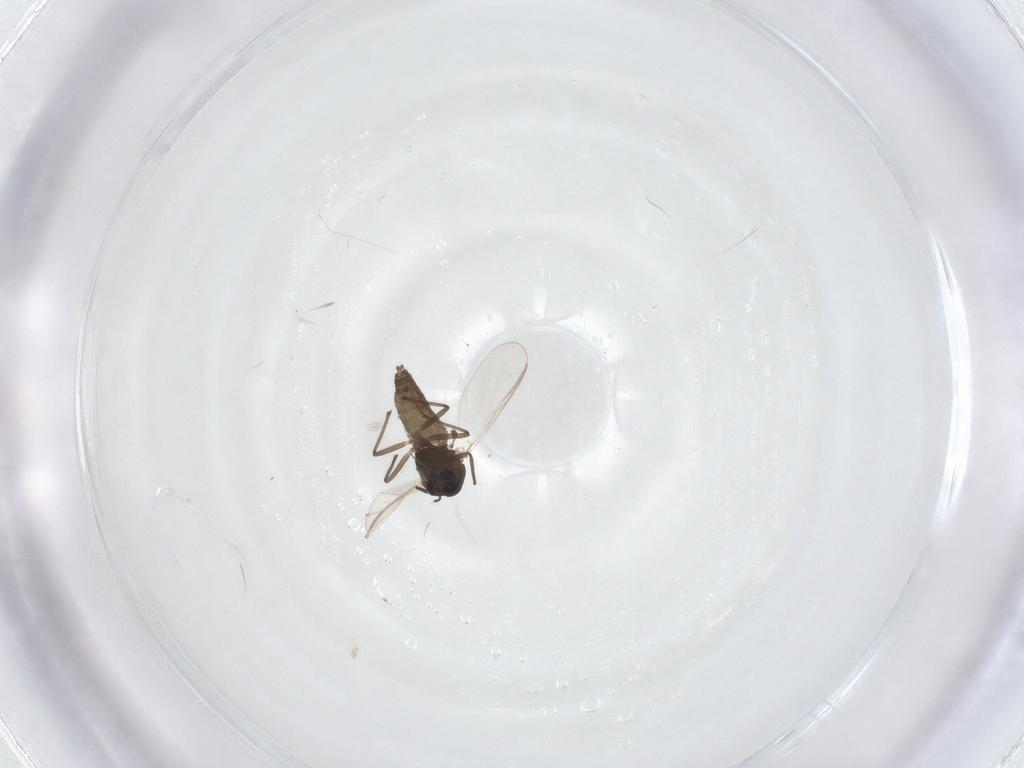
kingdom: Animalia
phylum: Arthropoda
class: Insecta
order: Diptera
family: Chironomidae
